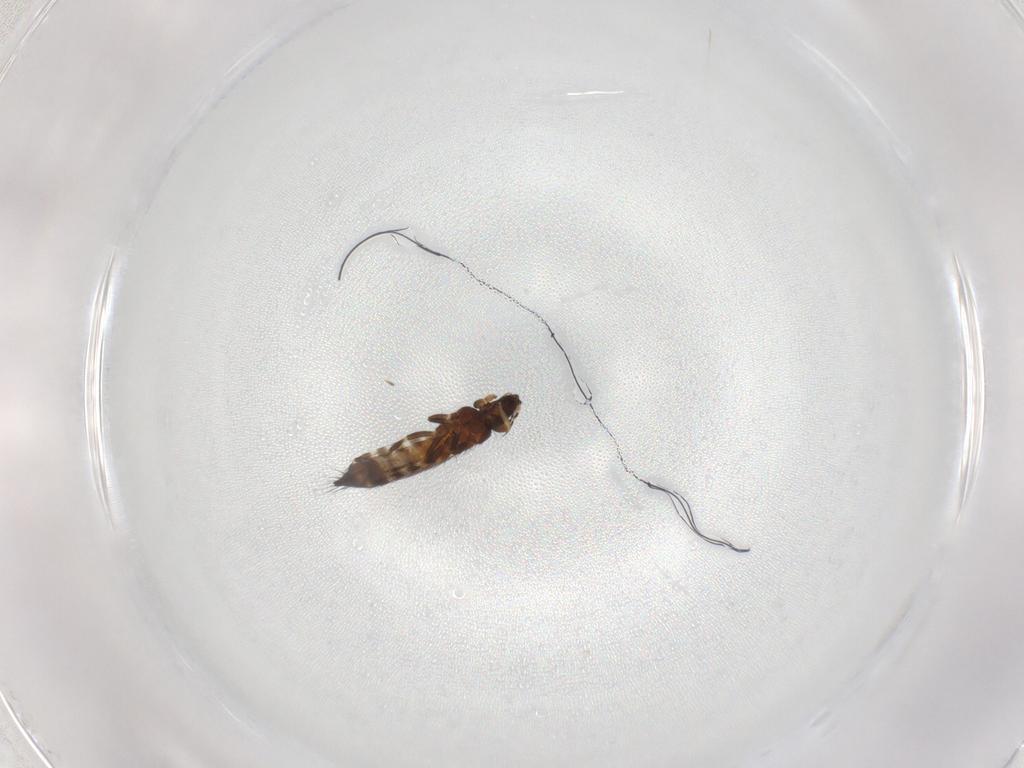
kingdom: Animalia
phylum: Arthropoda
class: Insecta
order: Thysanoptera
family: Thripidae
